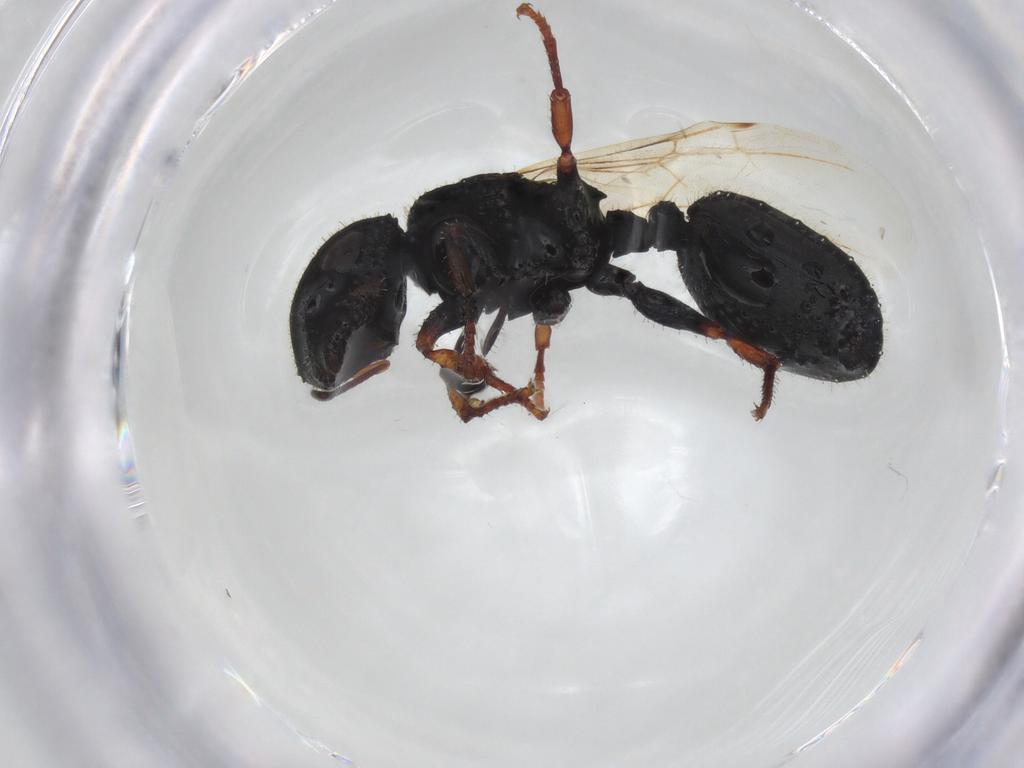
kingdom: Animalia
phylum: Arthropoda
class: Insecta
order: Hymenoptera
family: Formicidae
